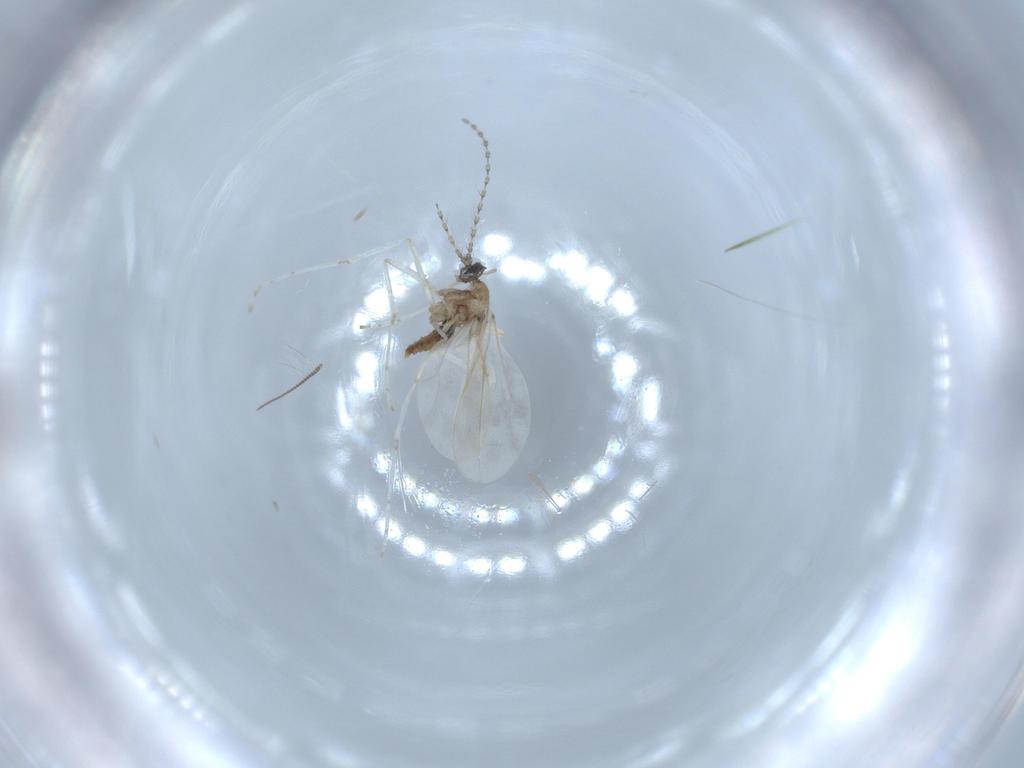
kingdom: Animalia
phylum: Arthropoda
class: Insecta
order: Diptera
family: Cecidomyiidae
